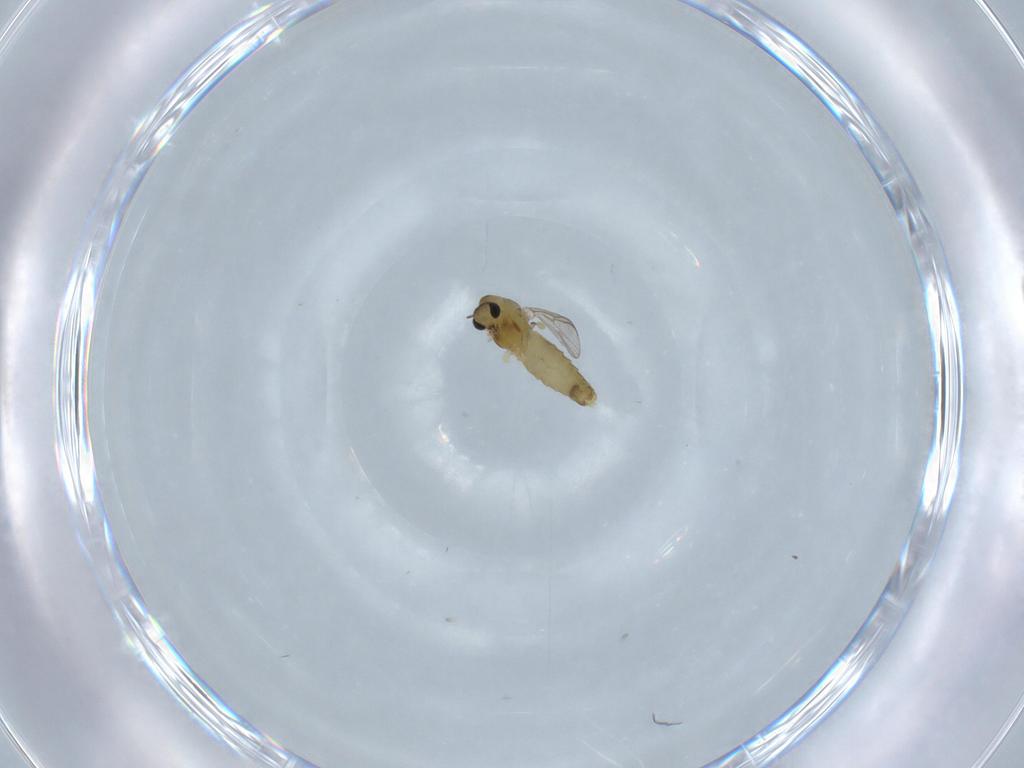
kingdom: Animalia
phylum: Arthropoda
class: Insecta
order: Diptera
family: Chironomidae
